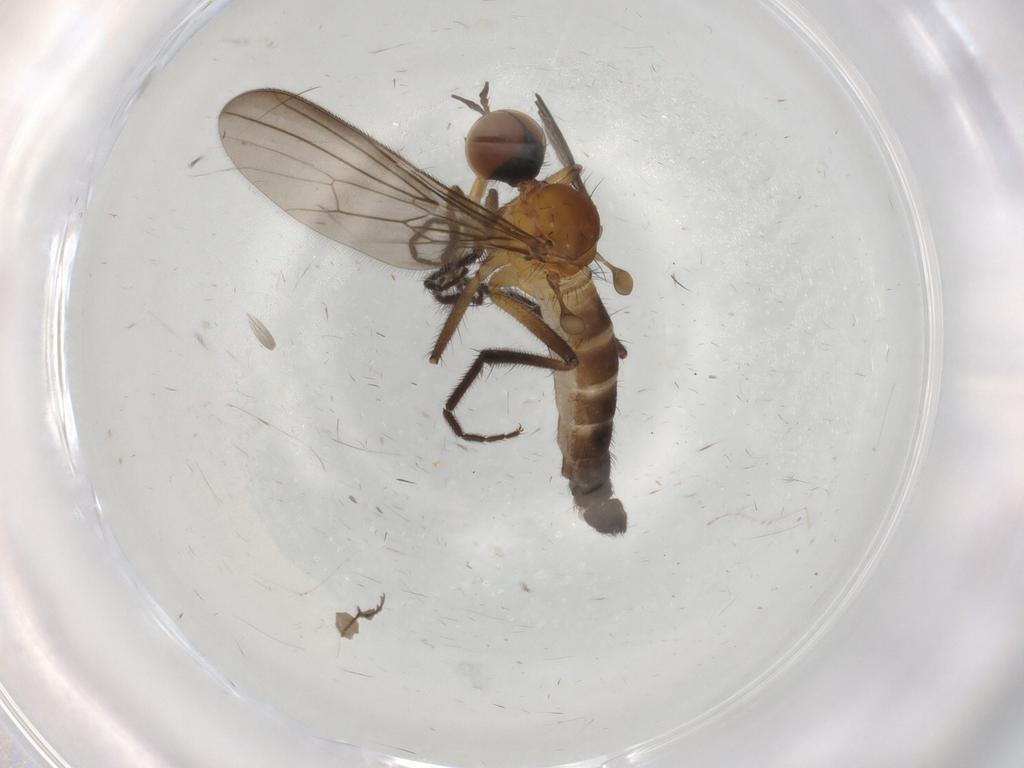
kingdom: Animalia
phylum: Arthropoda
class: Insecta
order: Diptera
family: Empididae
